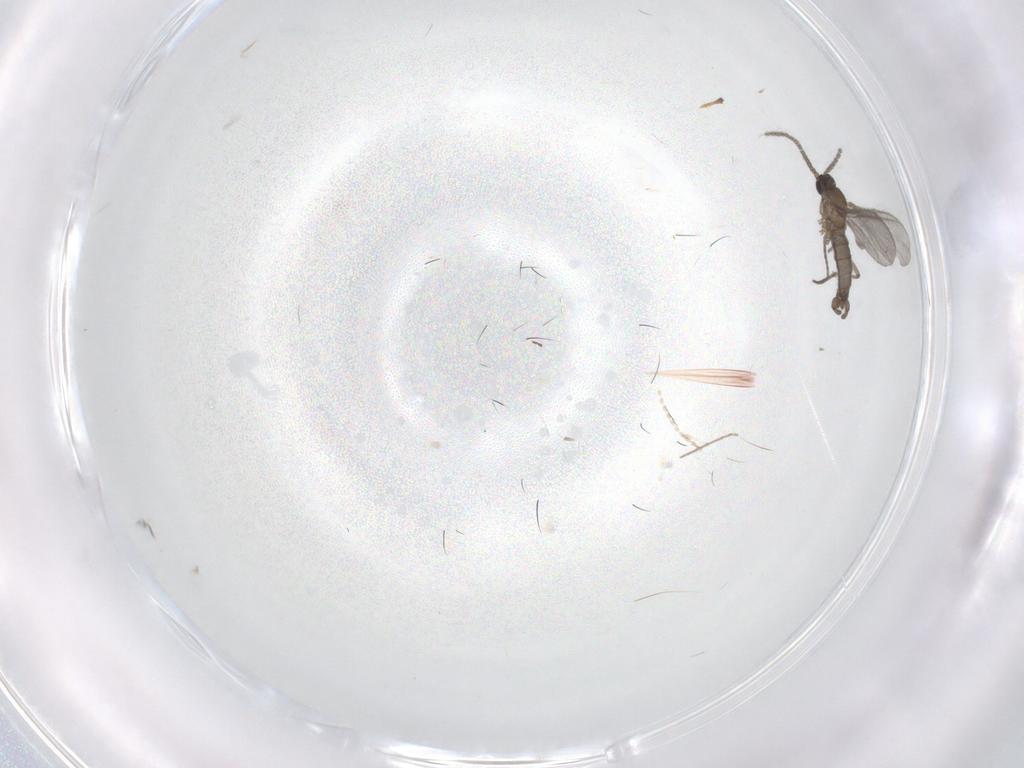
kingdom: Animalia
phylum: Arthropoda
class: Insecta
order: Diptera
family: Sciaridae
